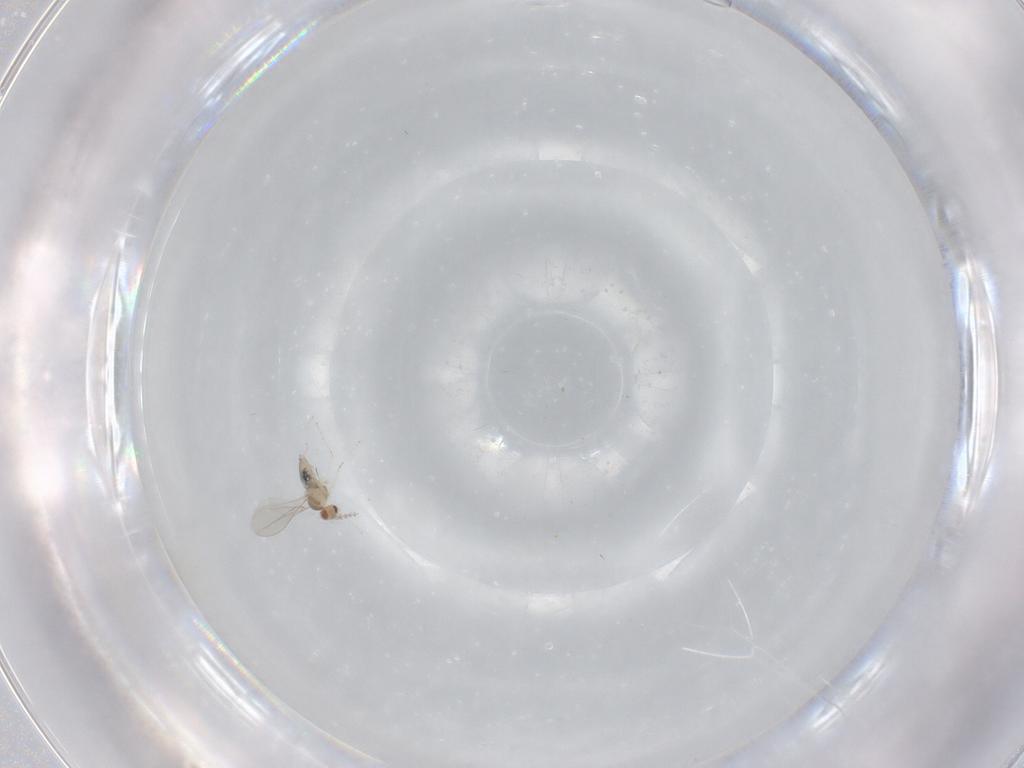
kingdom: Animalia
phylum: Arthropoda
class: Insecta
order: Diptera
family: Cecidomyiidae
